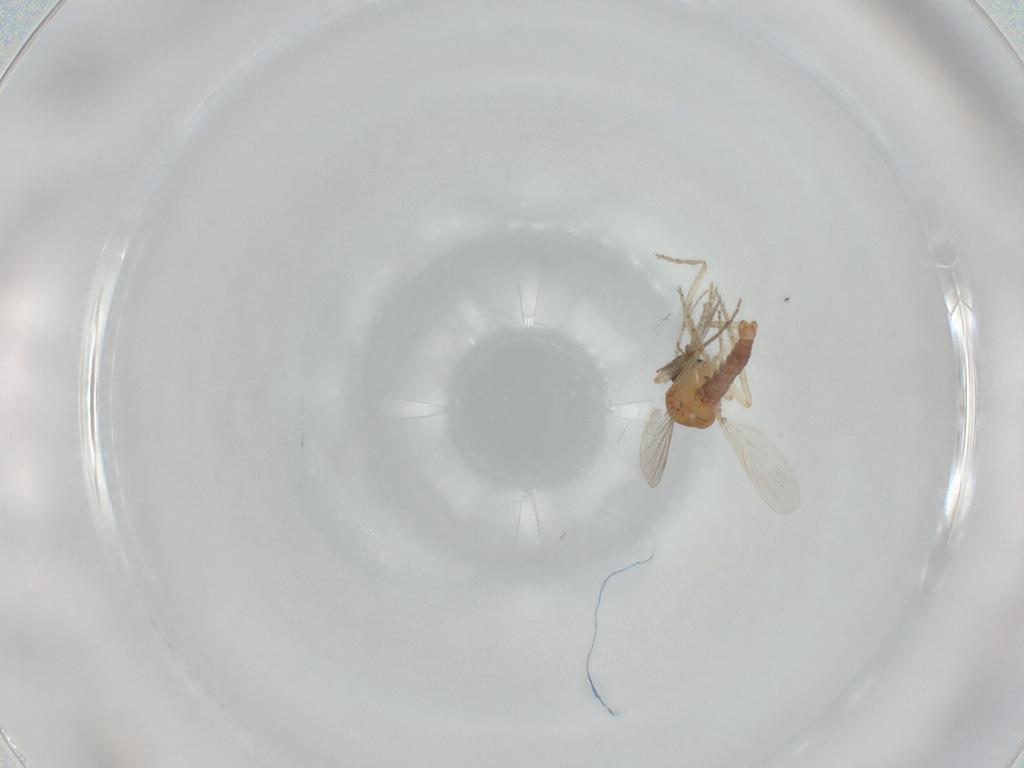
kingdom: Animalia
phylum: Arthropoda
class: Insecta
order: Diptera
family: Ceratopogonidae
